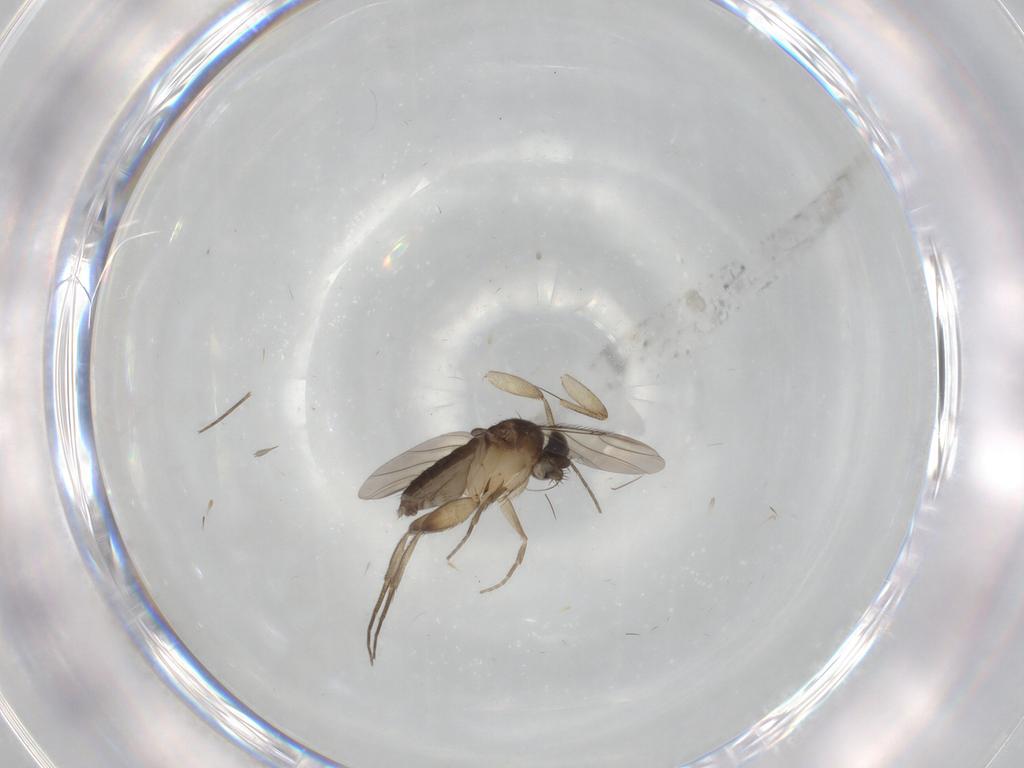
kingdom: Animalia
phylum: Arthropoda
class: Insecta
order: Diptera
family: Phoridae
